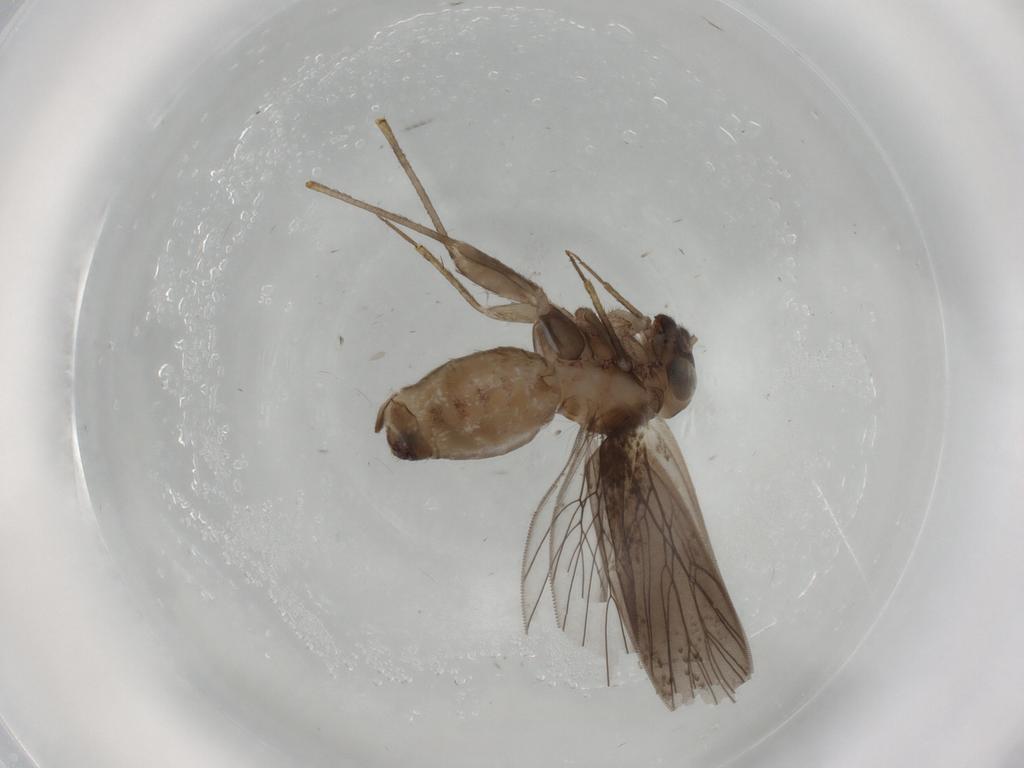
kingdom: Animalia
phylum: Arthropoda
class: Insecta
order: Psocodea
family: Lepidopsocidae
